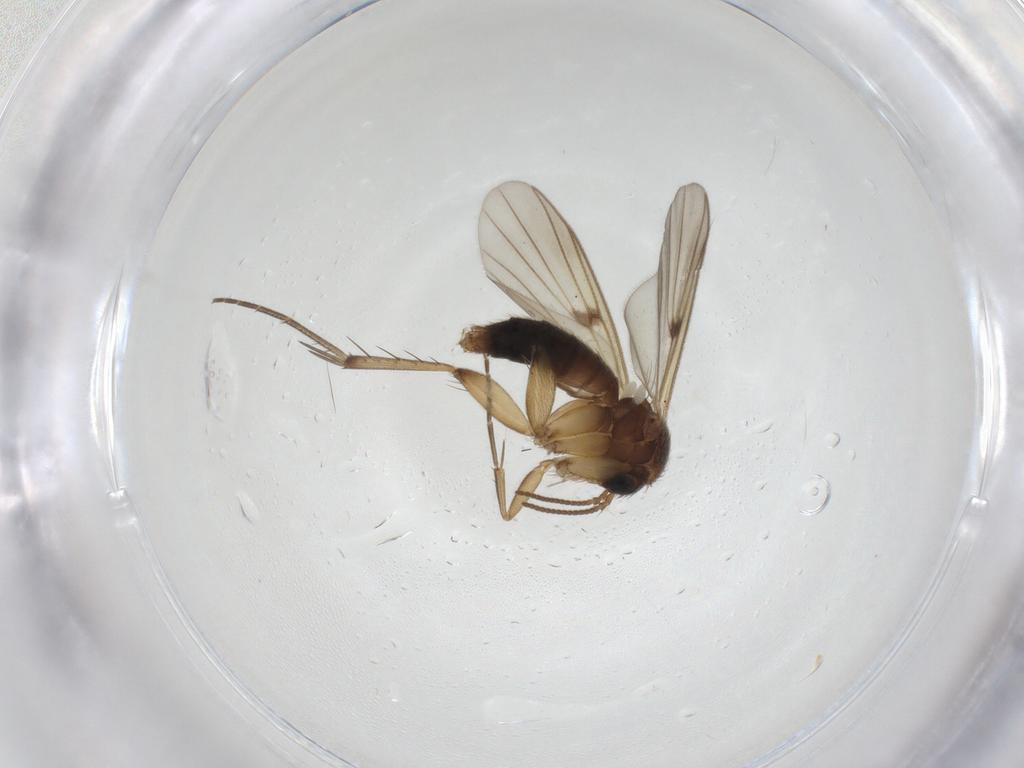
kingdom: Animalia
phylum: Arthropoda
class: Insecta
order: Diptera
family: Cecidomyiidae
